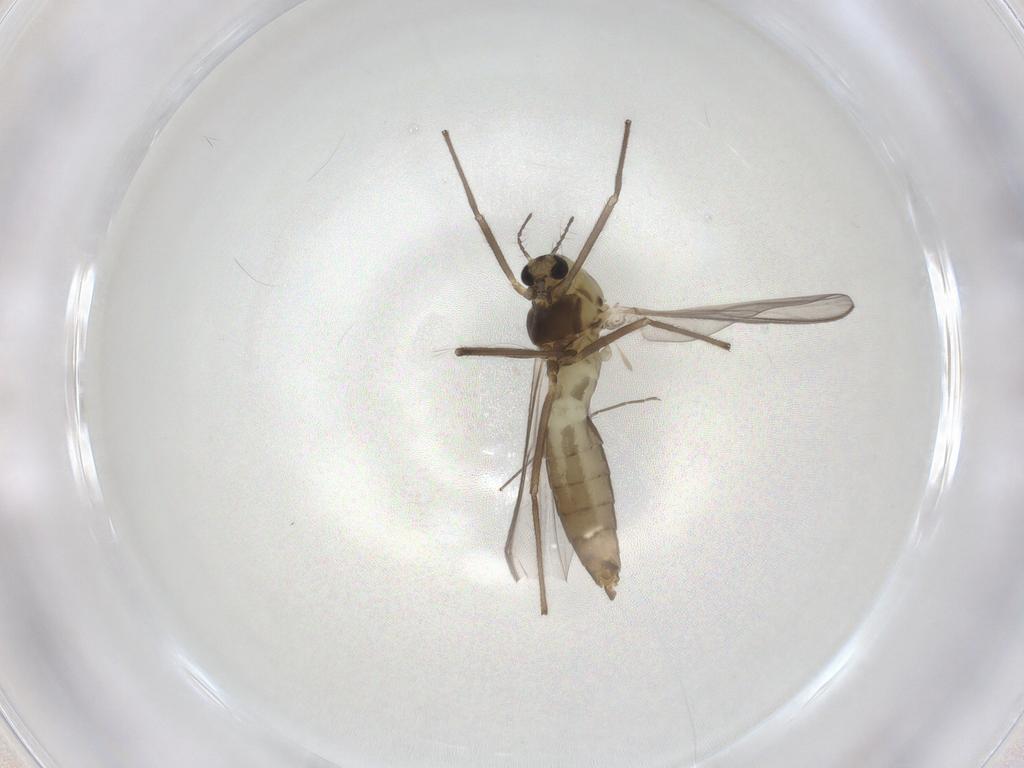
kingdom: Animalia
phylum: Arthropoda
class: Insecta
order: Diptera
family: Chironomidae
